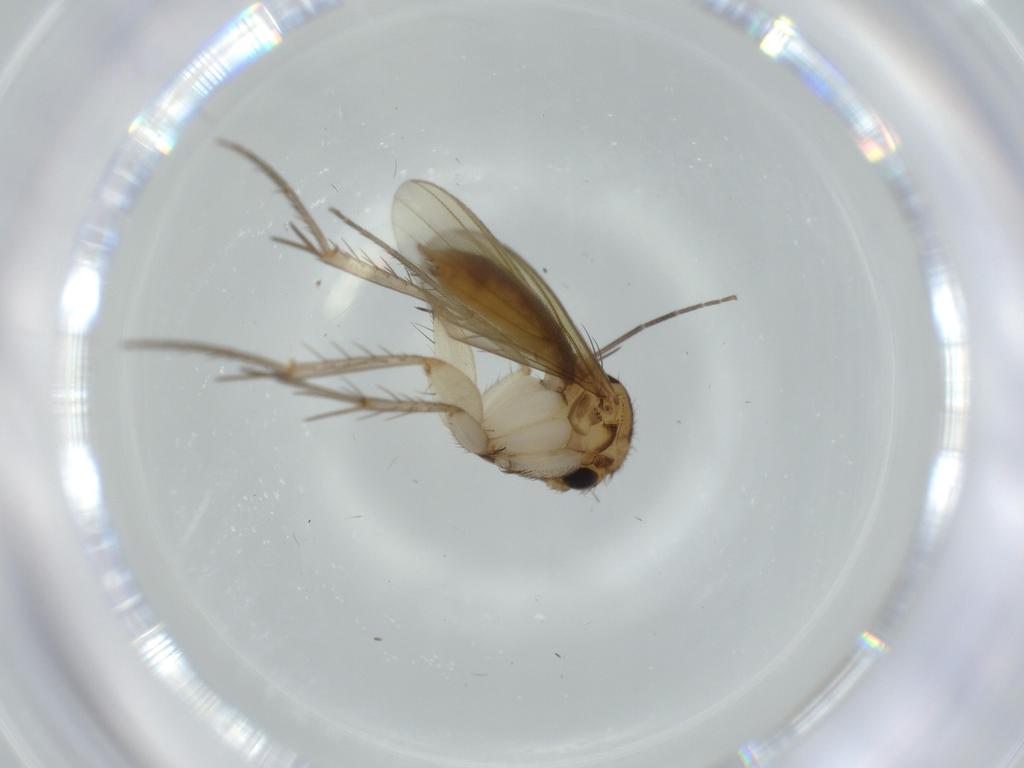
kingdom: Animalia
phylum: Arthropoda
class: Insecta
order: Diptera
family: Mycetophilidae
